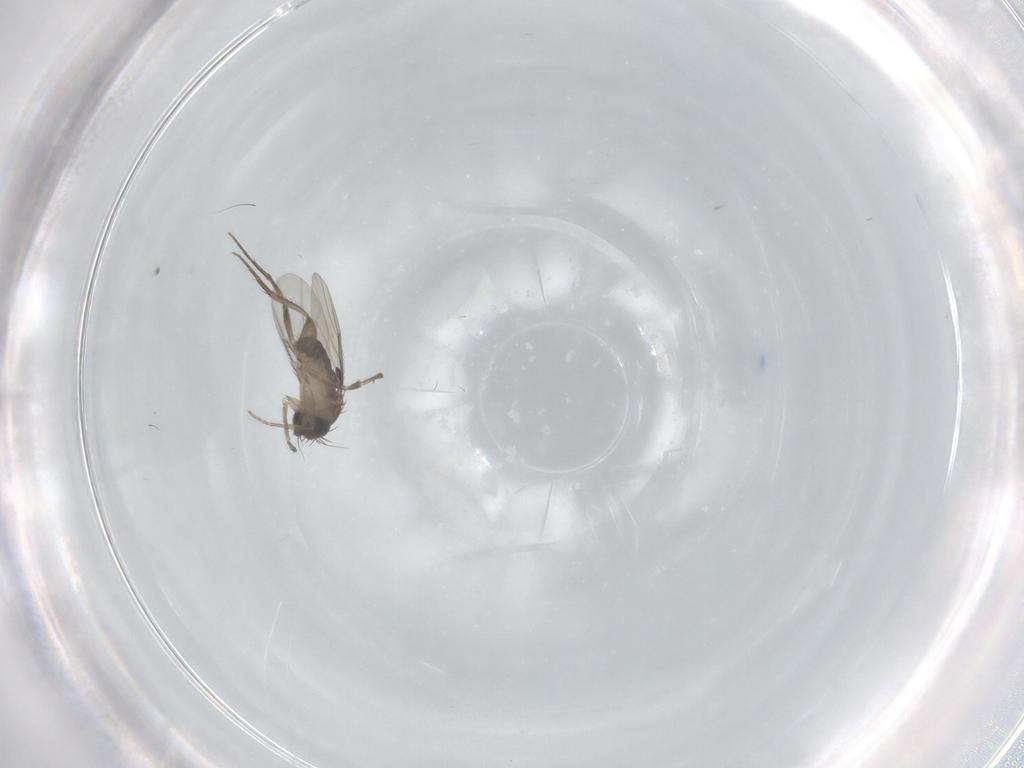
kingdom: Animalia
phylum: Arthropoda
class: Insecta
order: Diptera
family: Phoridae
